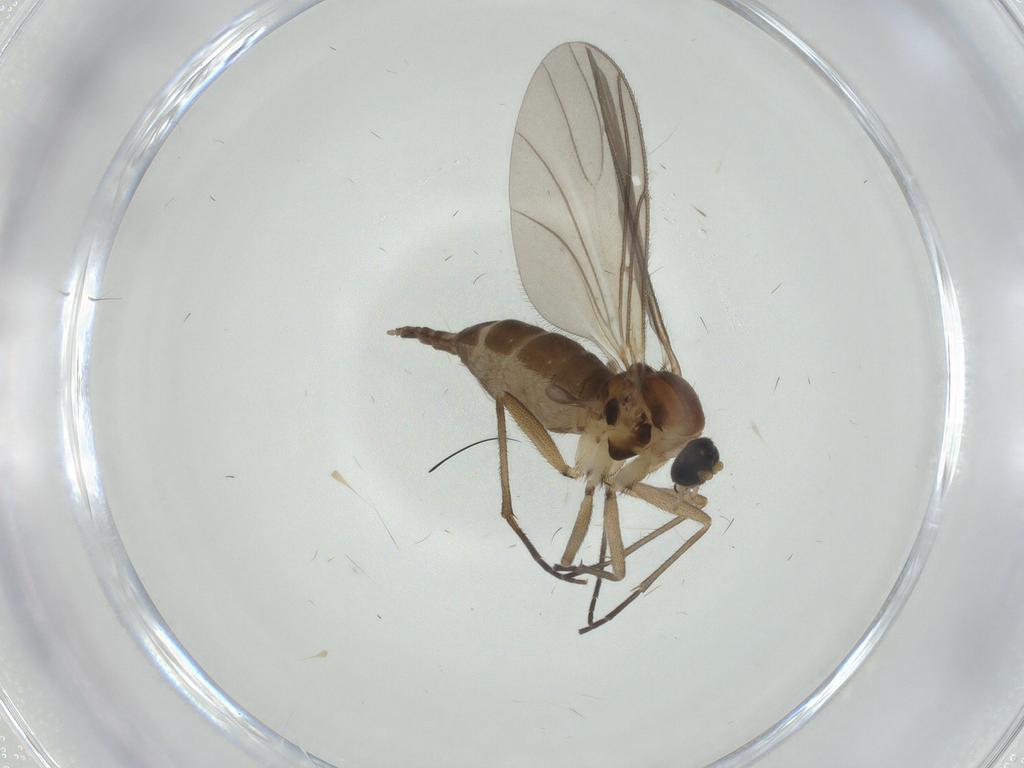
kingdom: Animalia
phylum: Arthropoda
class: Insecta
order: Diptera
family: Sciaridae
